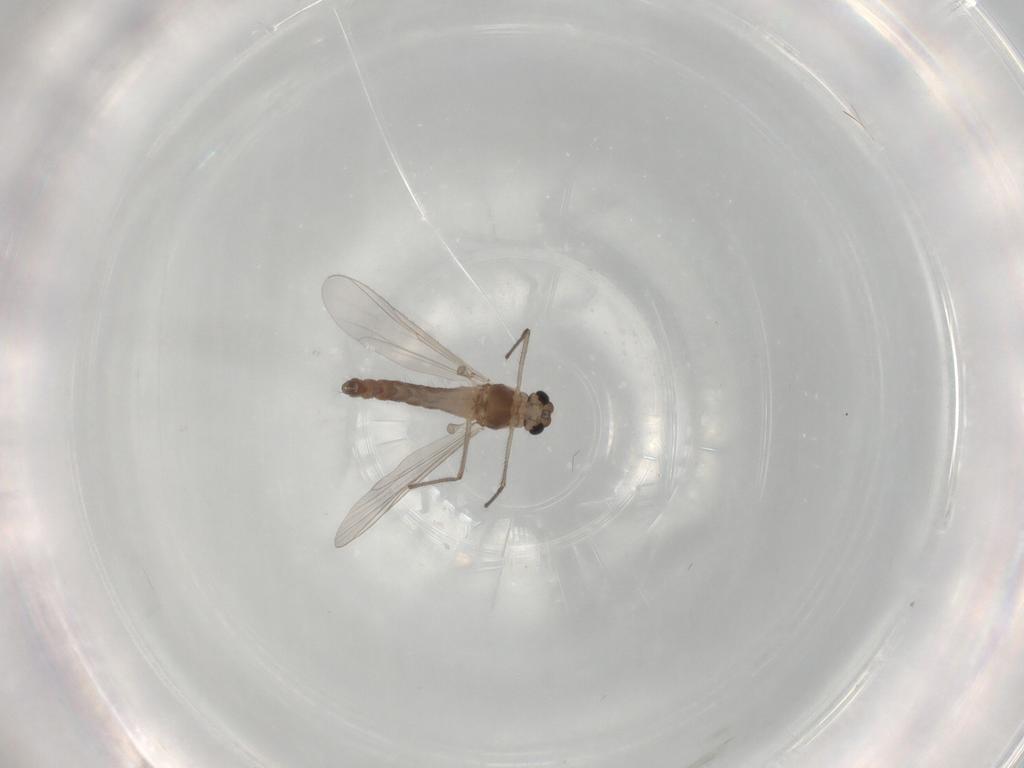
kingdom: Animalia
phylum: Arthropoda
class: Insecta
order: Diptera
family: Chironomidae
